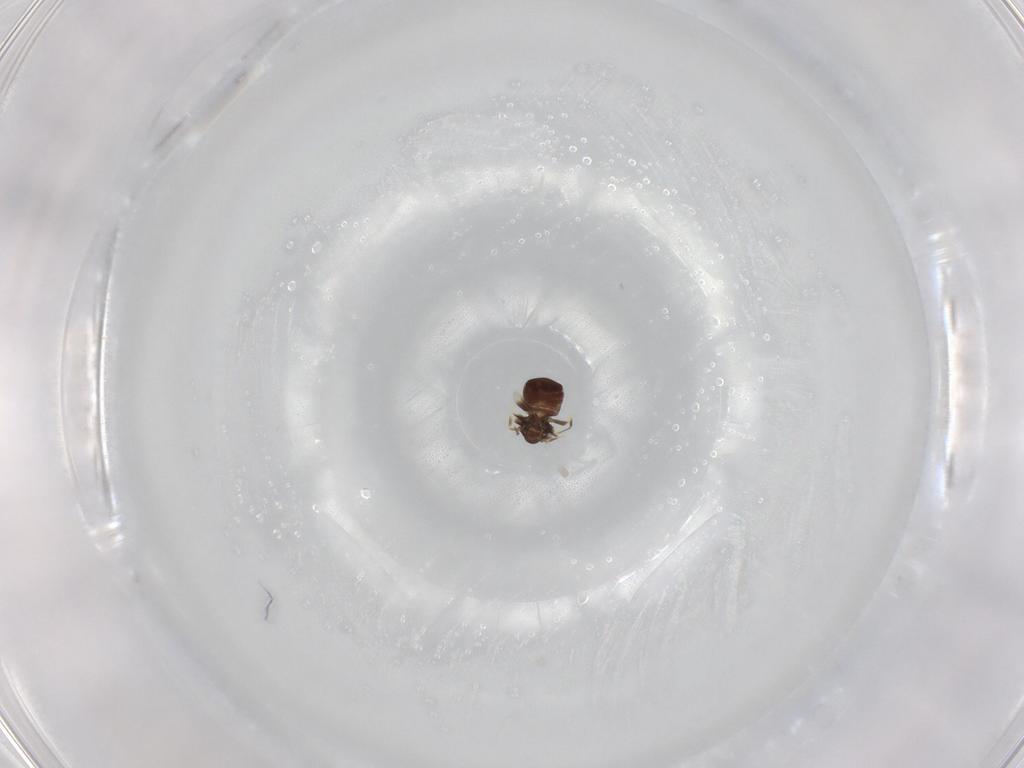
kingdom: Animalia
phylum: Arthropoda
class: Insecta
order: Diptera
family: Chironomidae
